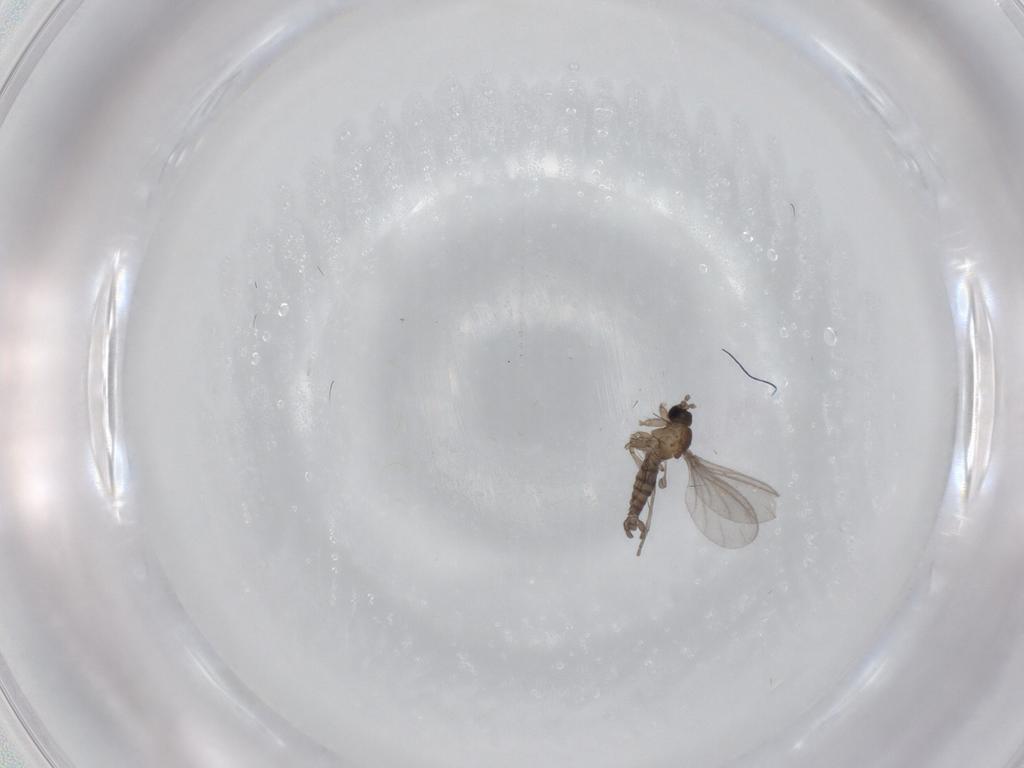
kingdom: Animalia
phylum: Arthropoda
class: Insecta
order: Diptera
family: Sciaridae
